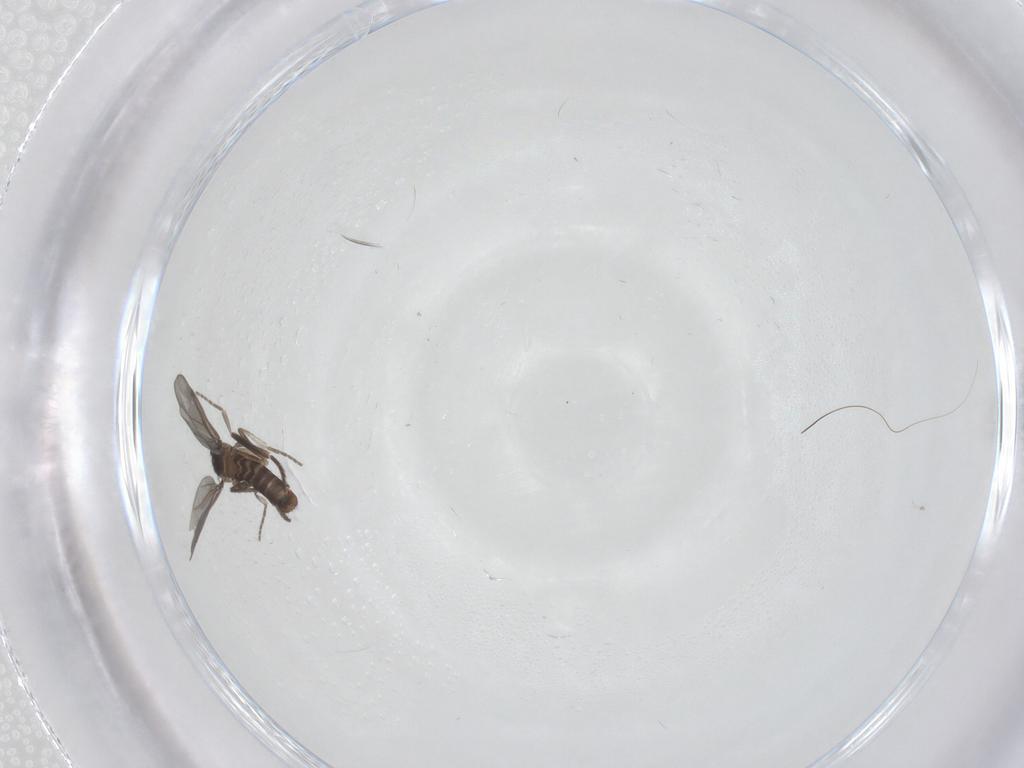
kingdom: Animalia
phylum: Arthropoda
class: Insecta
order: Diptera
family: Phoridae
